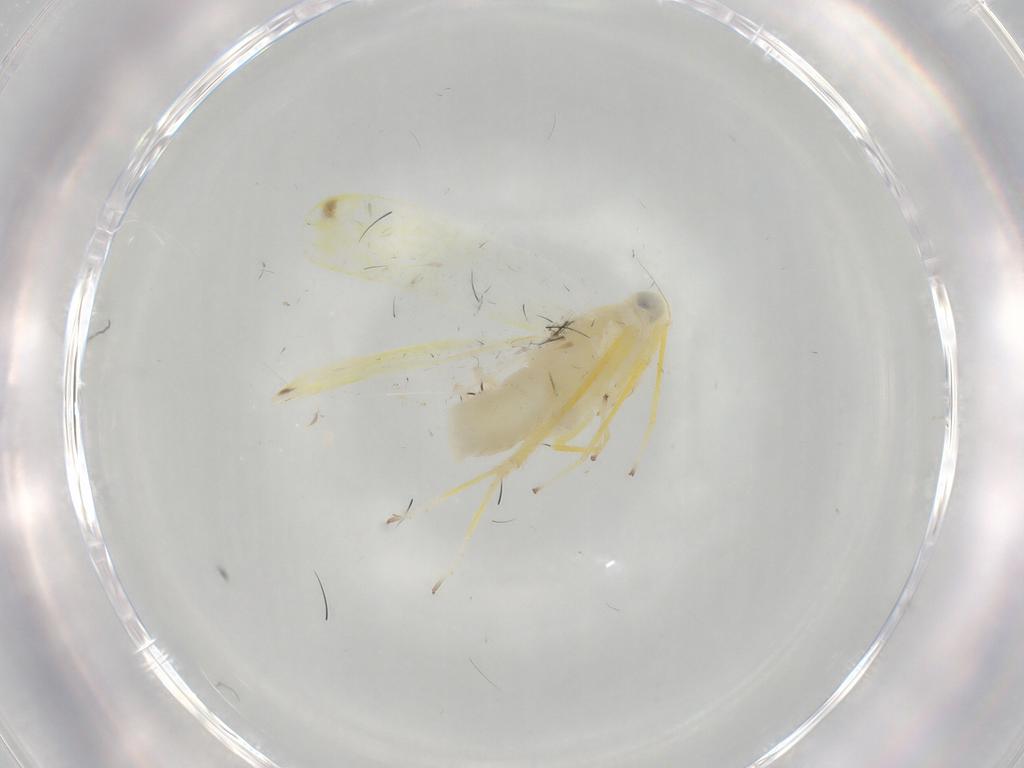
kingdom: Animalia
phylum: Arthropoda
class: Insecta
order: Hemiptera
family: Cicadellidae
